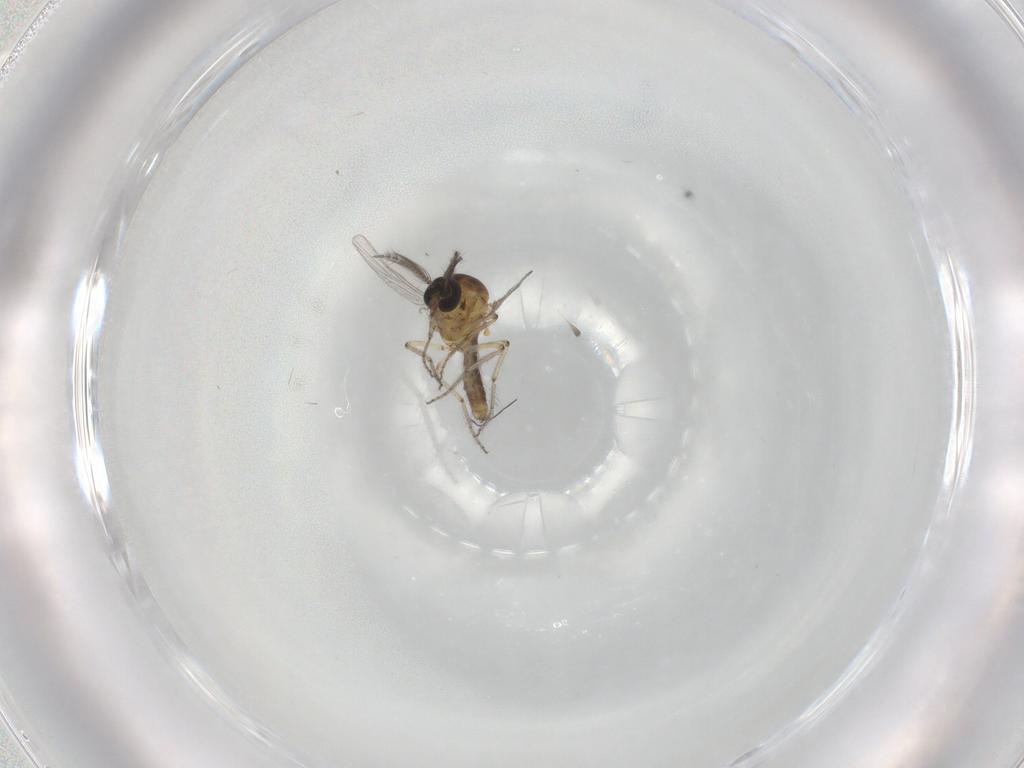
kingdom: Animalia
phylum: Arthropoda
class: Insecta
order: Diptera
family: Ceratopogonidae
